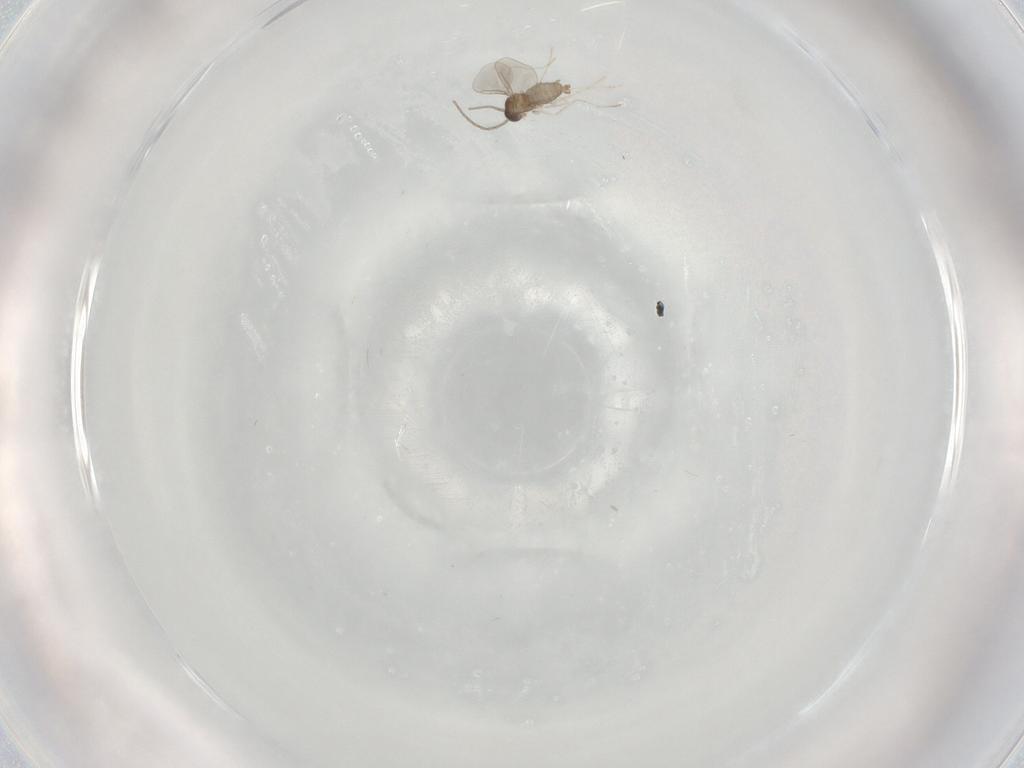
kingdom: Animalia
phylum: Arthropoda
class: Insecta
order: Diptera
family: Cecidomyiidae
